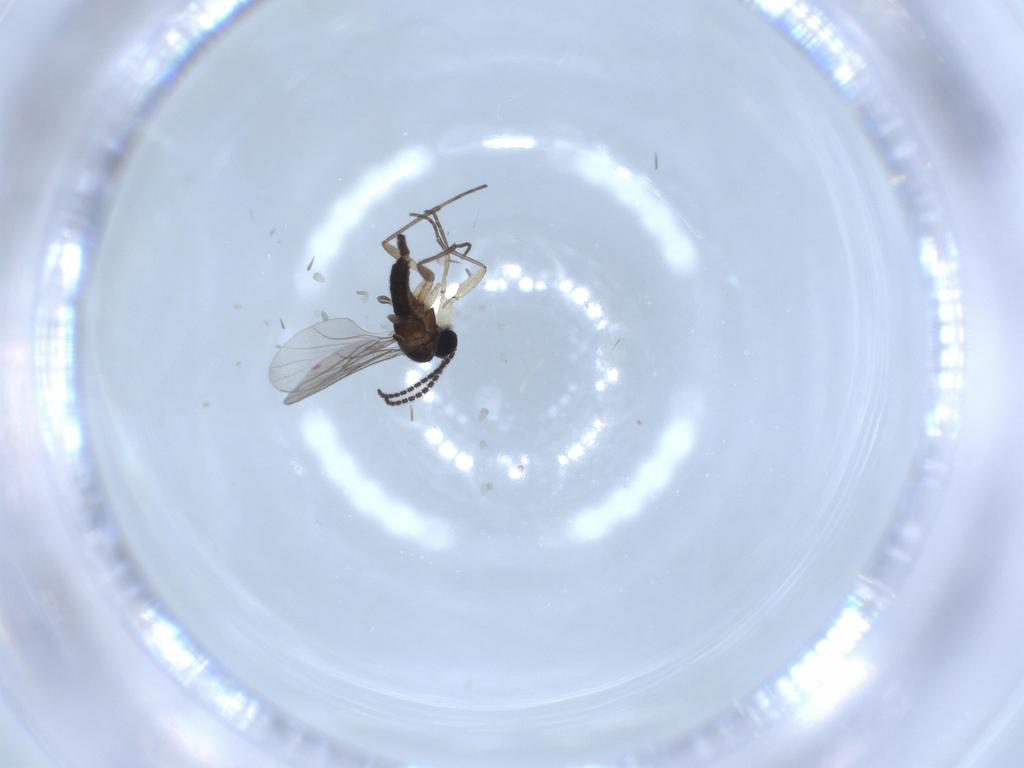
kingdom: Animalia
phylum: Arthropoda
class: Insecta
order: Diptera
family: Sciaridae
